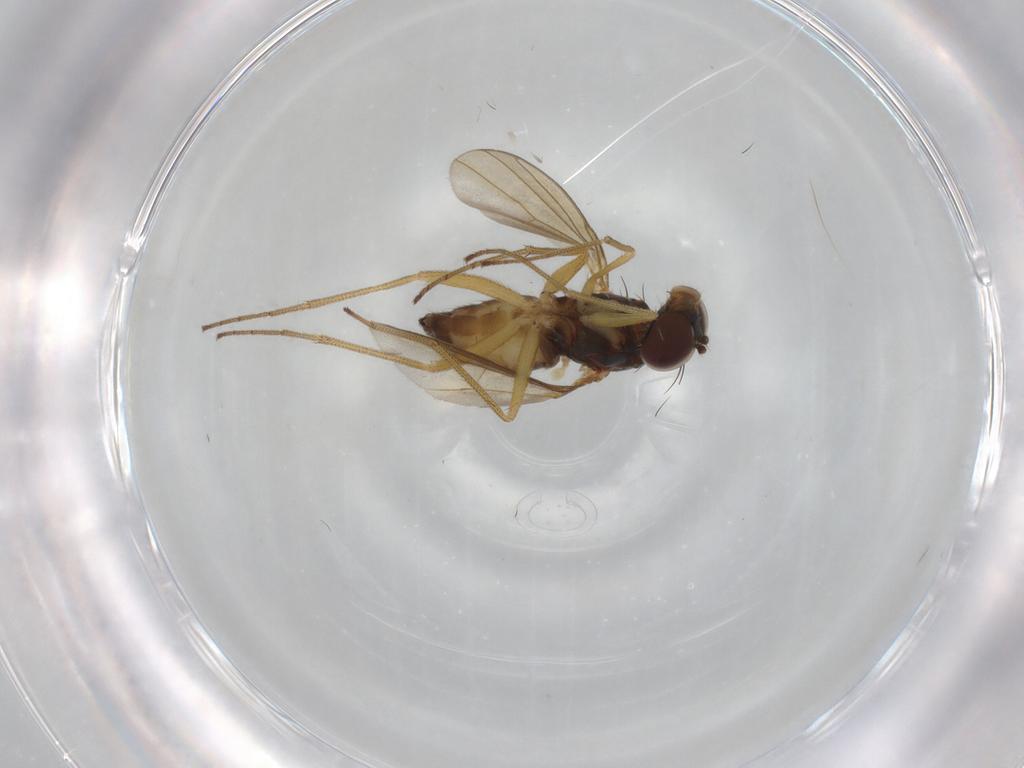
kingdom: Animalia
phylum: Arthropoda
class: Insecta
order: Diptera
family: Dolichopodidae
